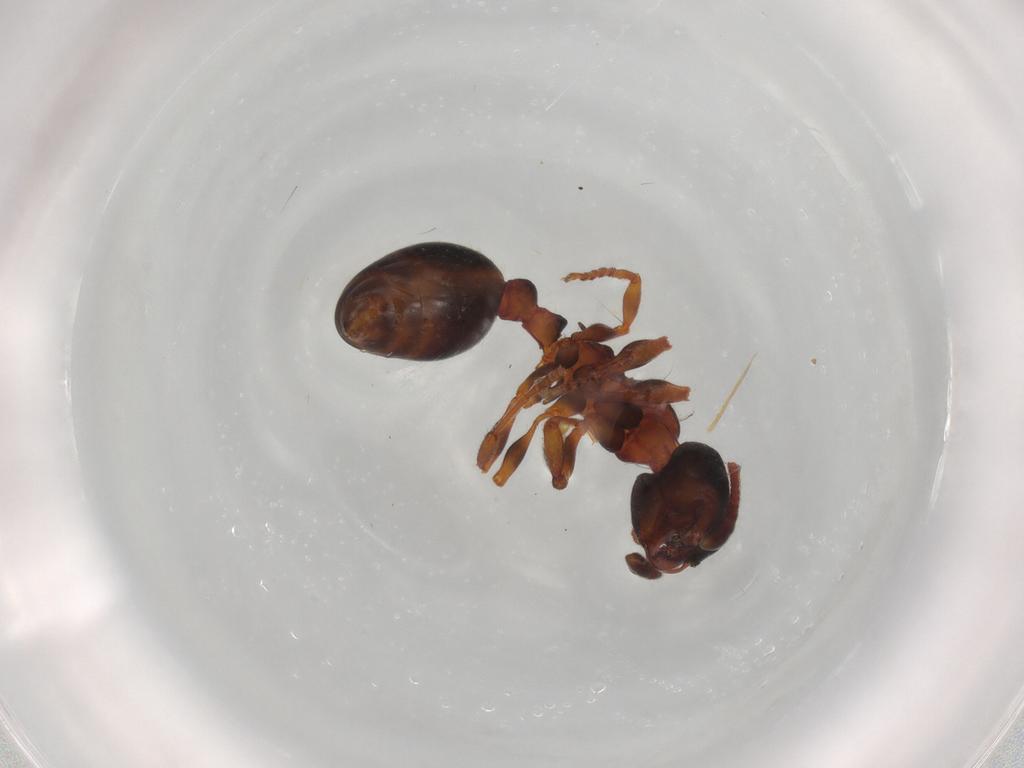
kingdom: Animalia
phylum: Arthropoda
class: Insecta
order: Hymenoptera
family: Formicidae
